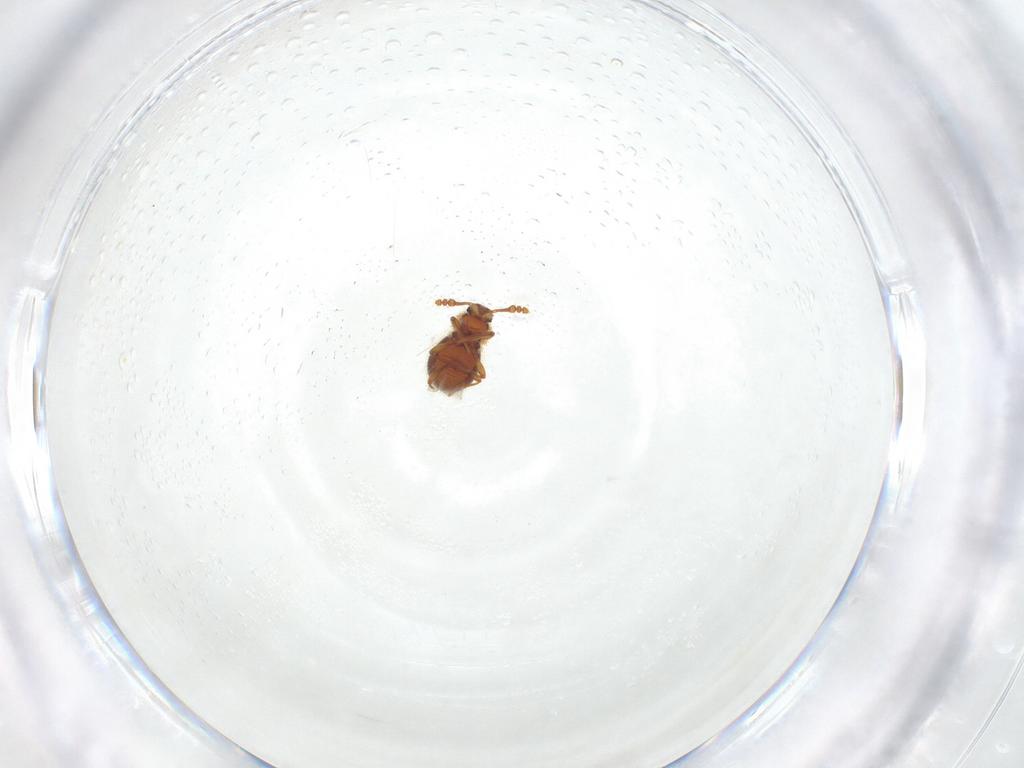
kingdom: Animalia
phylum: Arthropoda
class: Insecta
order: Coleoptera
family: Staphylinidae
